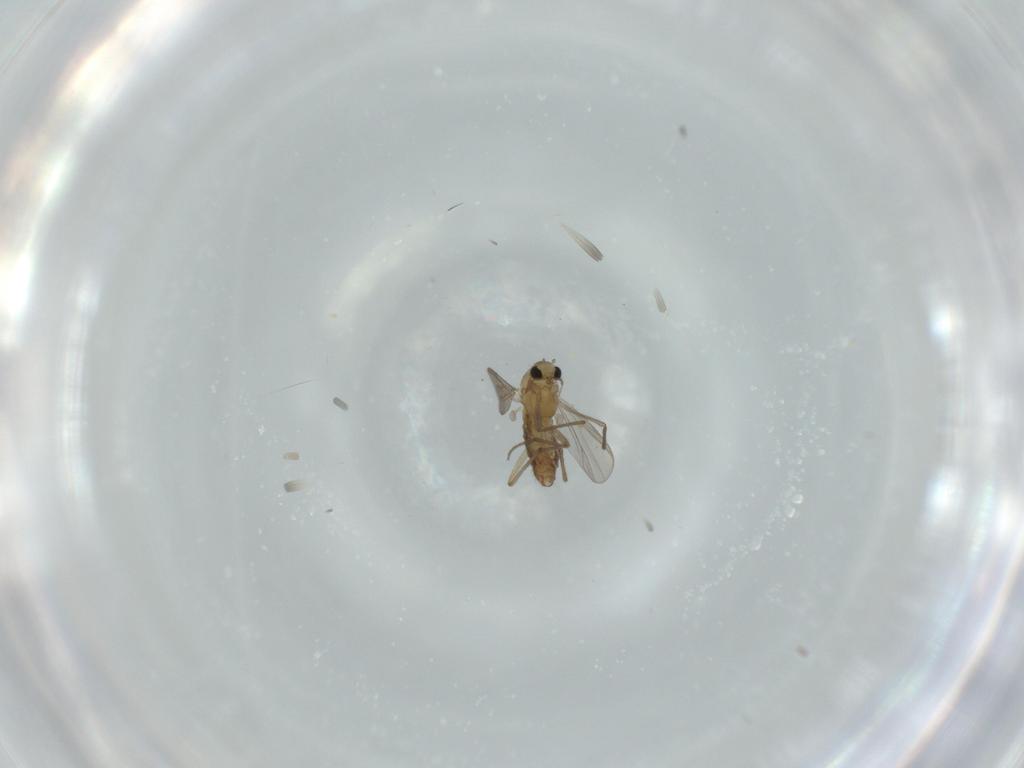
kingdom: Animalia
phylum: Arthropoda
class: Insecta
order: Diptera
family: Chironomidae
